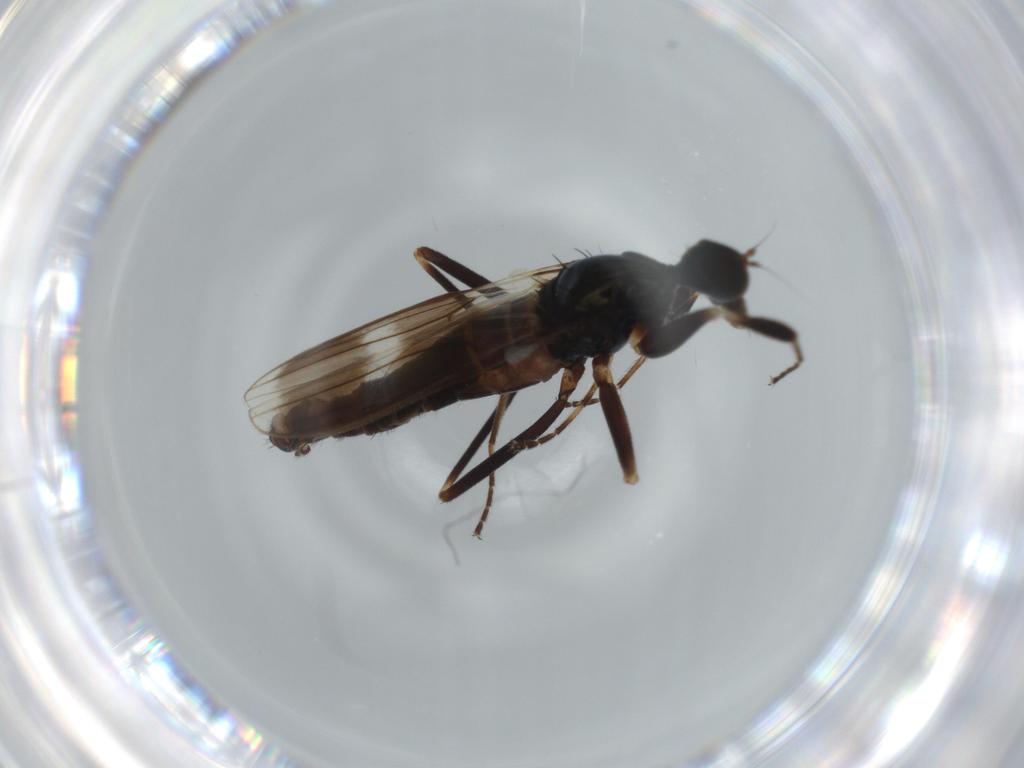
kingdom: Animalia
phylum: Arthropoda
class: Insecta
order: Diptera
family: Hybotidae
